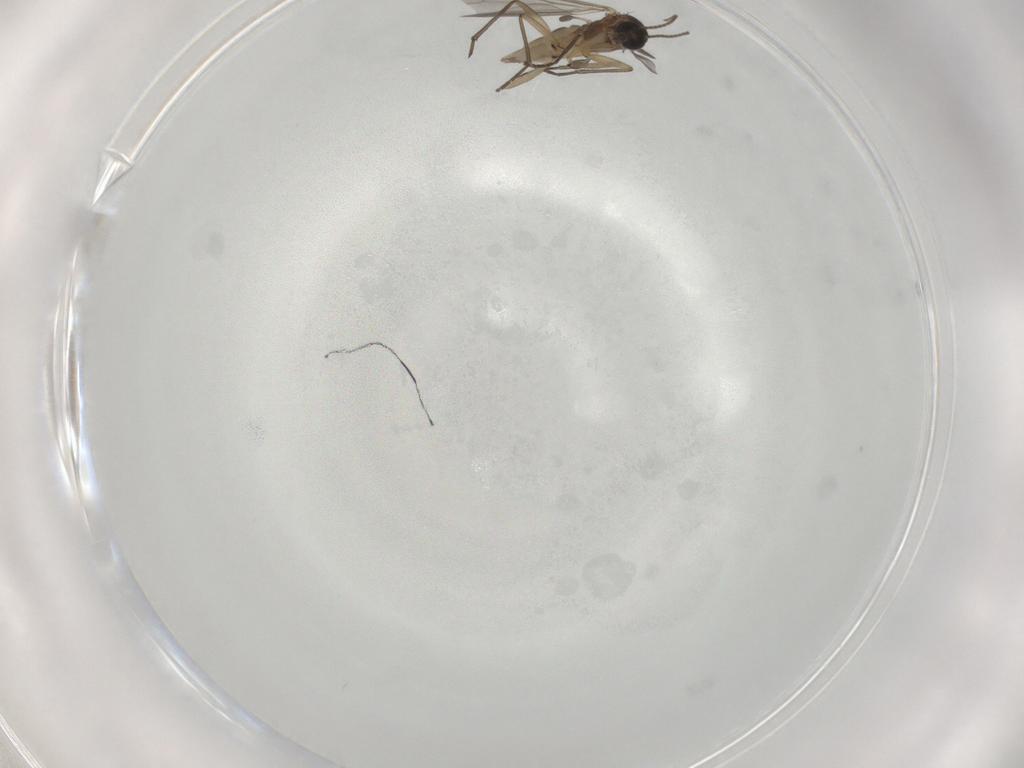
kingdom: Animalia
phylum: Arthropoda
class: Insecta
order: Diptera
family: Sciaridae
